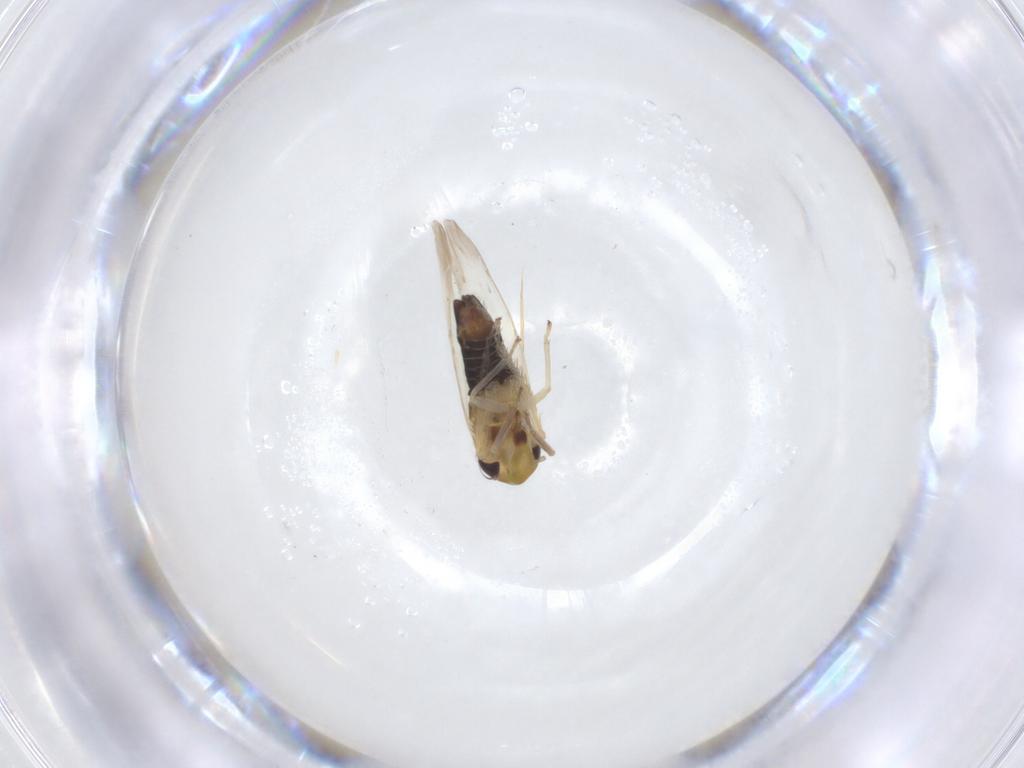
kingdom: Animalia
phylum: Arthropoda
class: Insecta
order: Hemiptera
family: Cicadellidae
